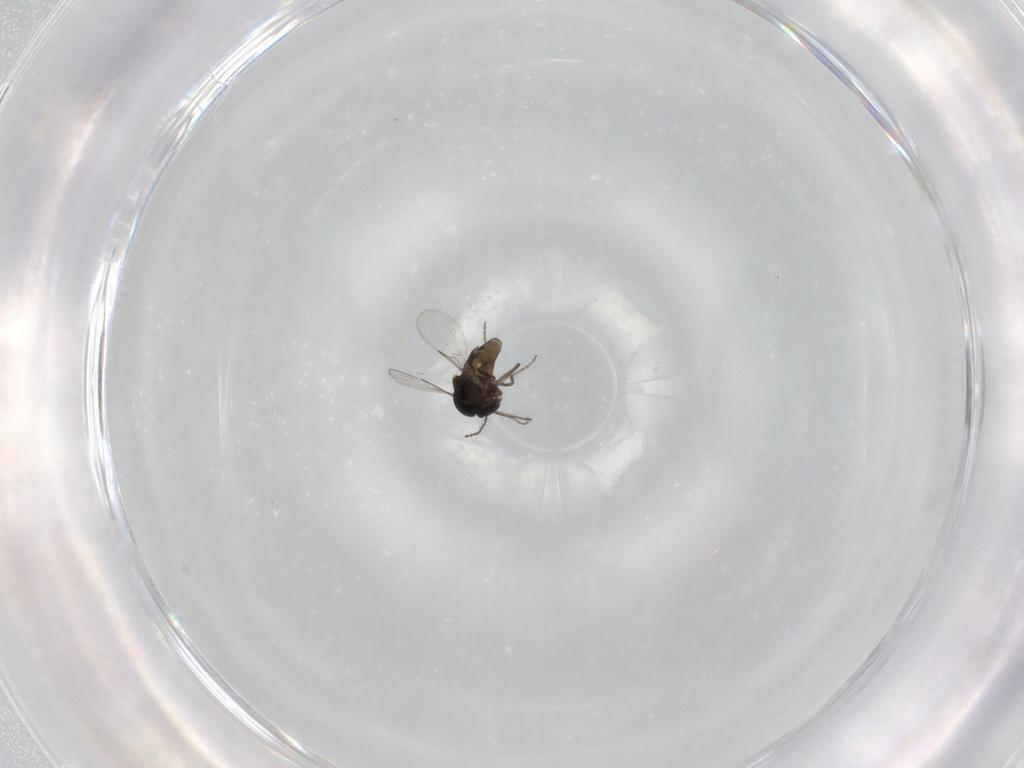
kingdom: Animalia
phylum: Arthropoda
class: Insecta
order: Diptera
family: Ceratopogonidae
